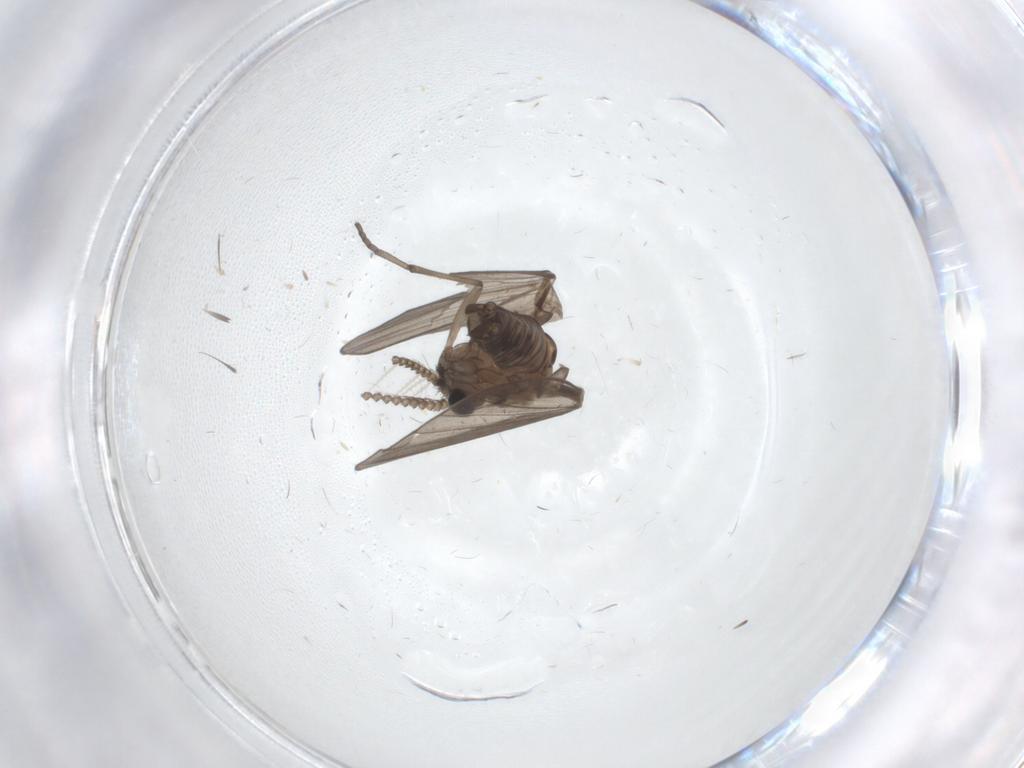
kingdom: Animalia
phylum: Arthropoda
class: Insecta
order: Diptera
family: Psychodidae
